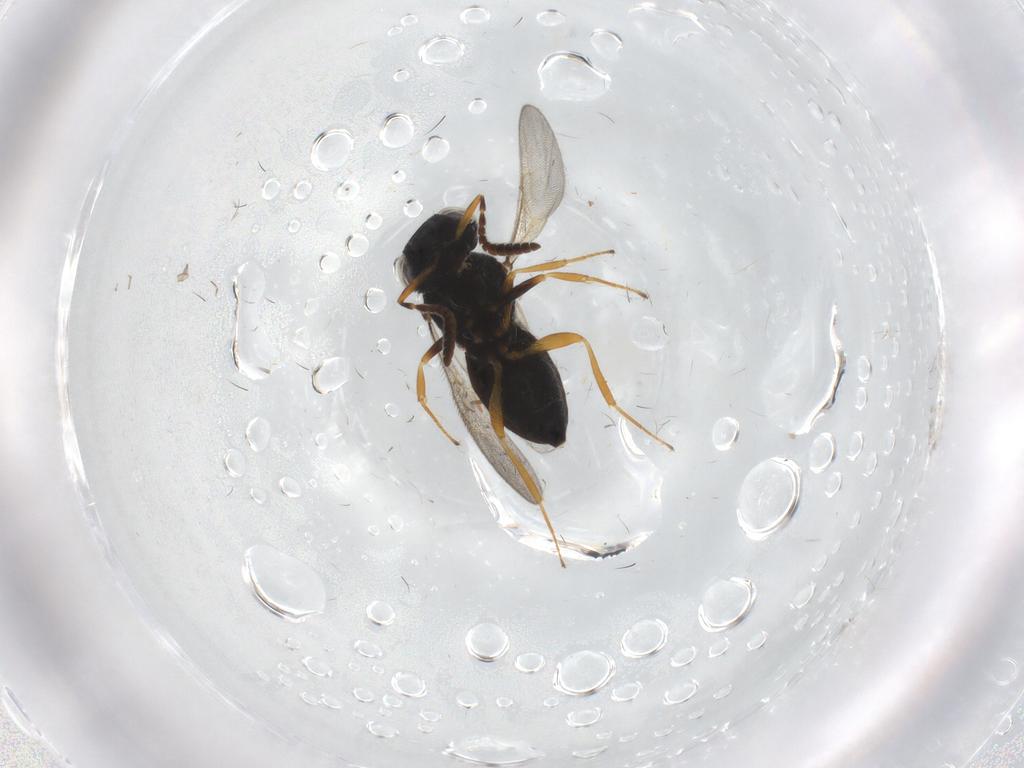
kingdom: Animalia
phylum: Arthropoda
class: Insecta
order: Hymenoptera
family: Scelionidae
